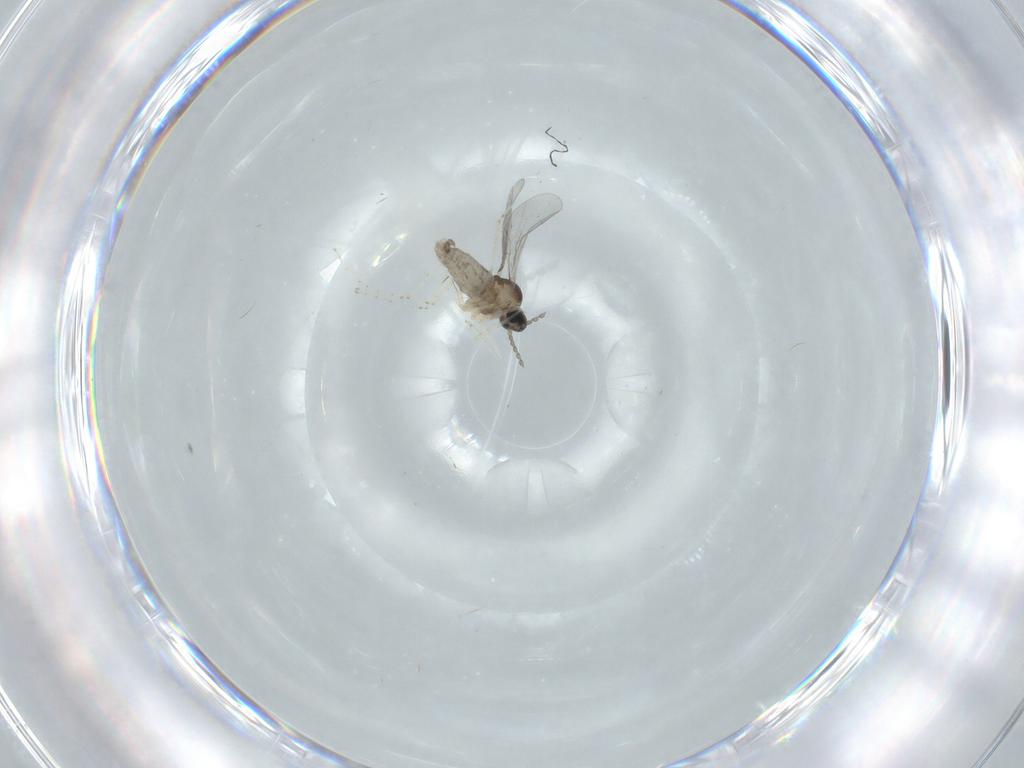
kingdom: Animalia
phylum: Arthropoda
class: Insecta
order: Diptera
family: Cecidomyiidae
